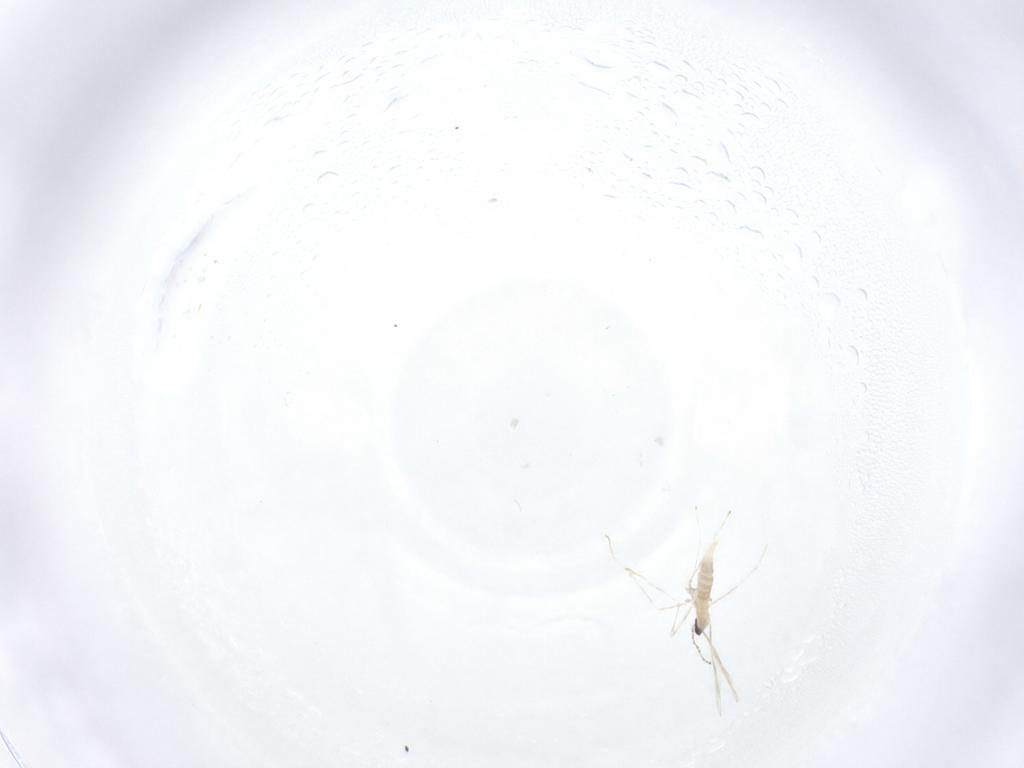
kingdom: Animalia
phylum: Arthropoda
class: Insecta
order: Diptera
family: Cecidomyiidae
